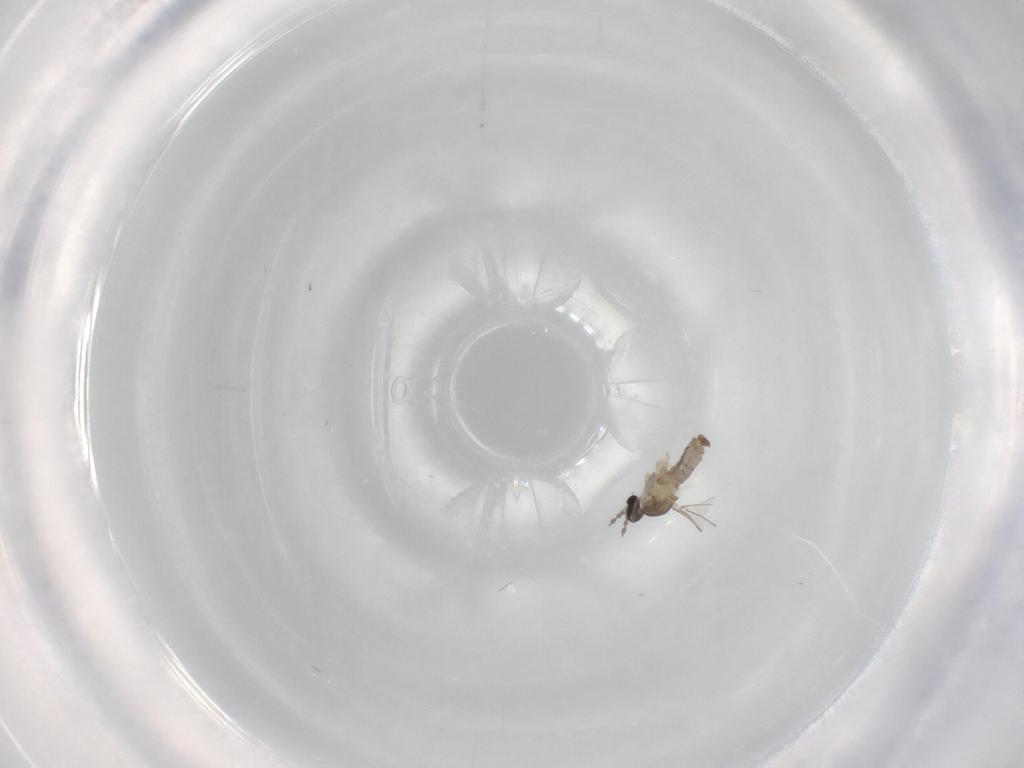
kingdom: Animalia
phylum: Arthropoda
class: Insecta
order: Diptera
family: Cecidomyiidae
